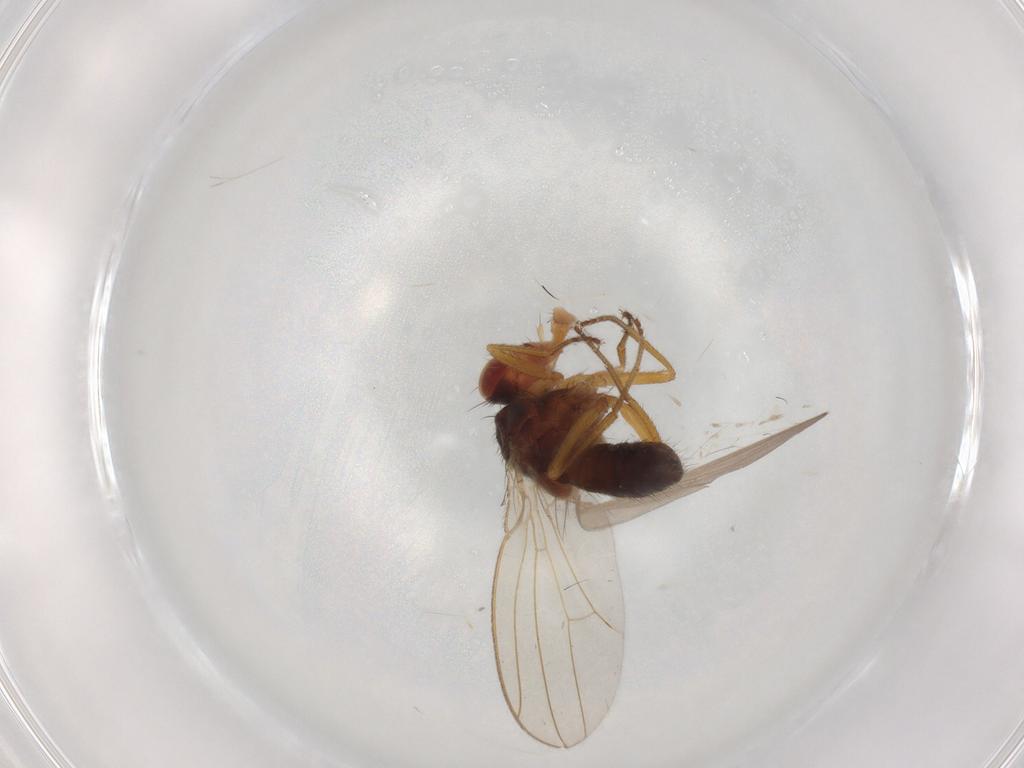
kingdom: Animalia
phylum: Arthropoda
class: Insecta
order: Diptera
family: Drosophilidae
